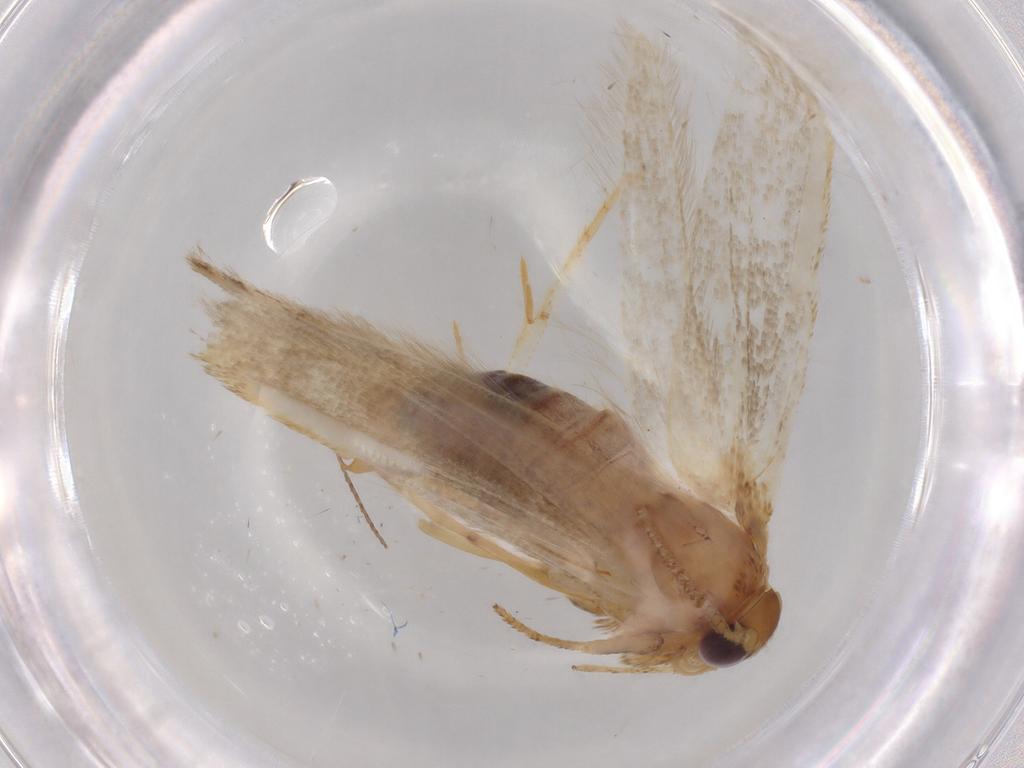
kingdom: Animalia
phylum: Arthropoda
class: Insecta
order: Lepidoptera
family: Blastobasidae
